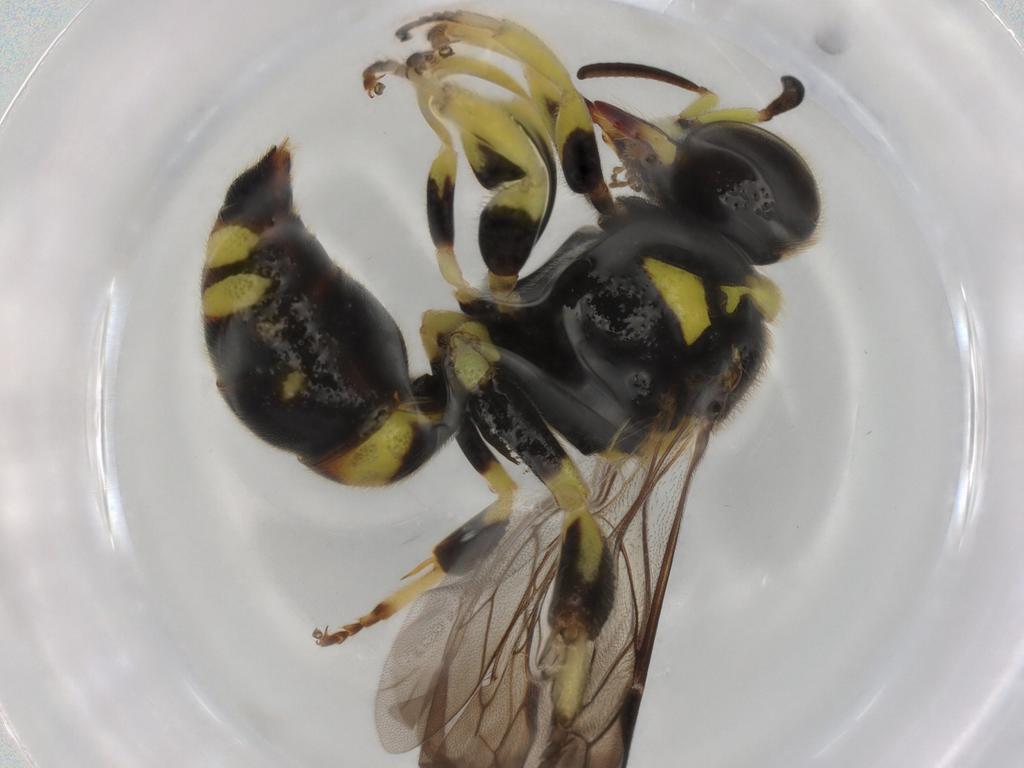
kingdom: Animalia
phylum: Arthropoda
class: Insecta
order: Hymenoptera
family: Crabronidae
